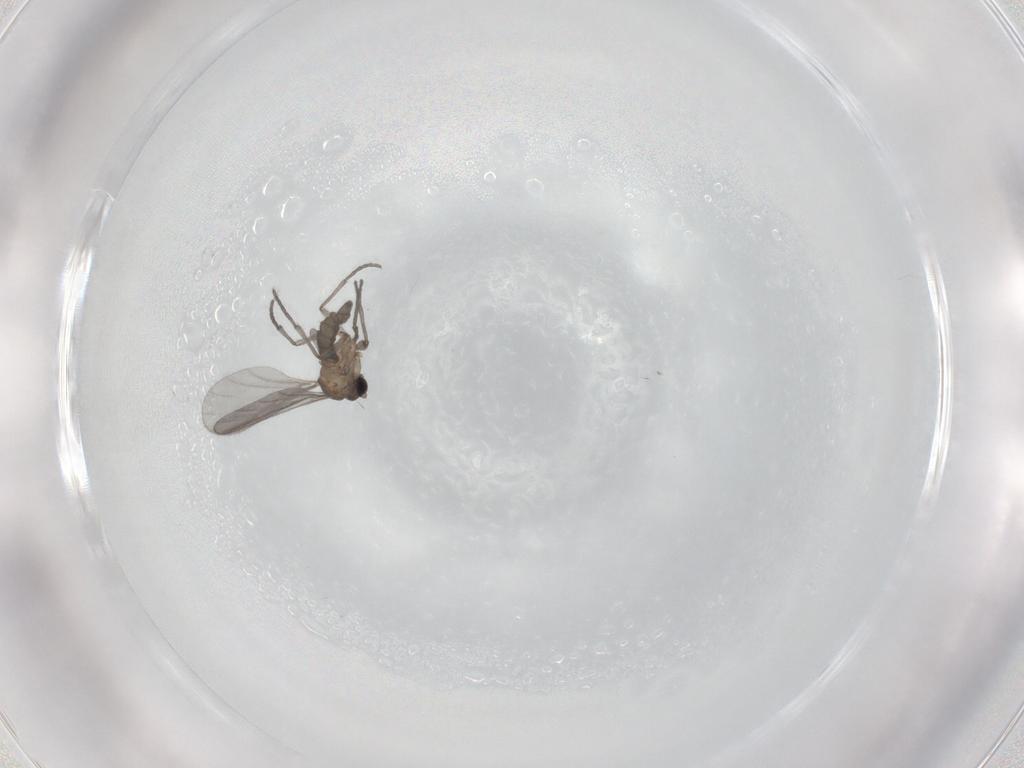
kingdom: Animalia
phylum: Arthropoda
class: Insecta
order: Diptera
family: Sciaridae
